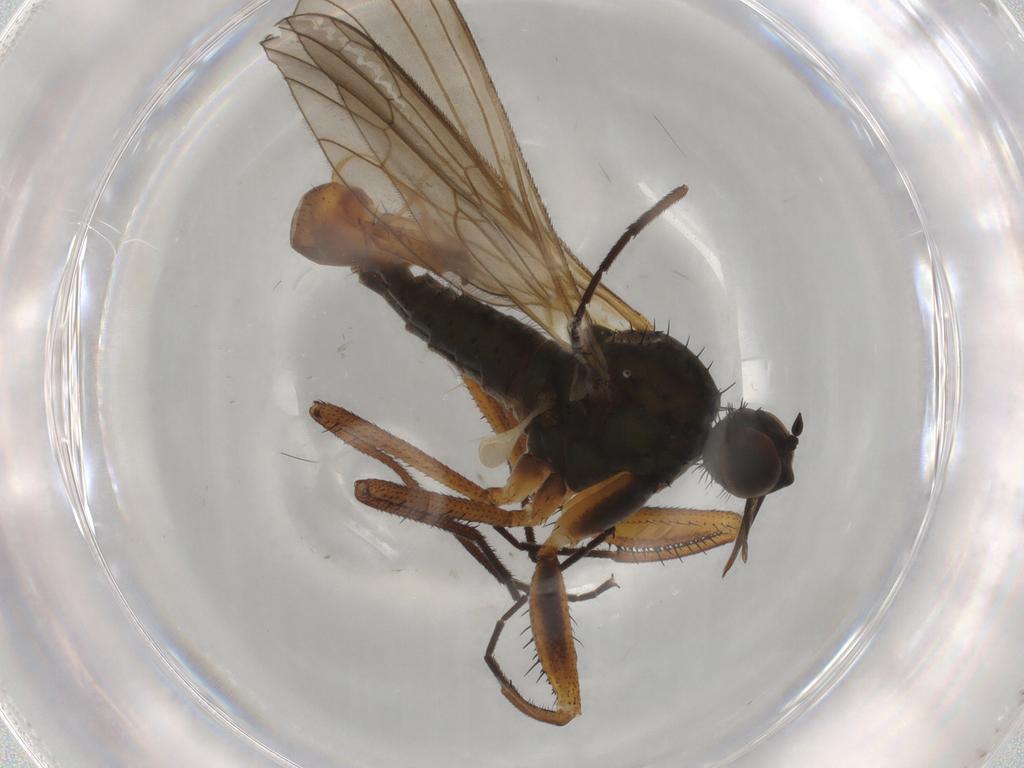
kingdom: Animalia
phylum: Arthropoda
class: Insecta
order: Diptera
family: Empididae
